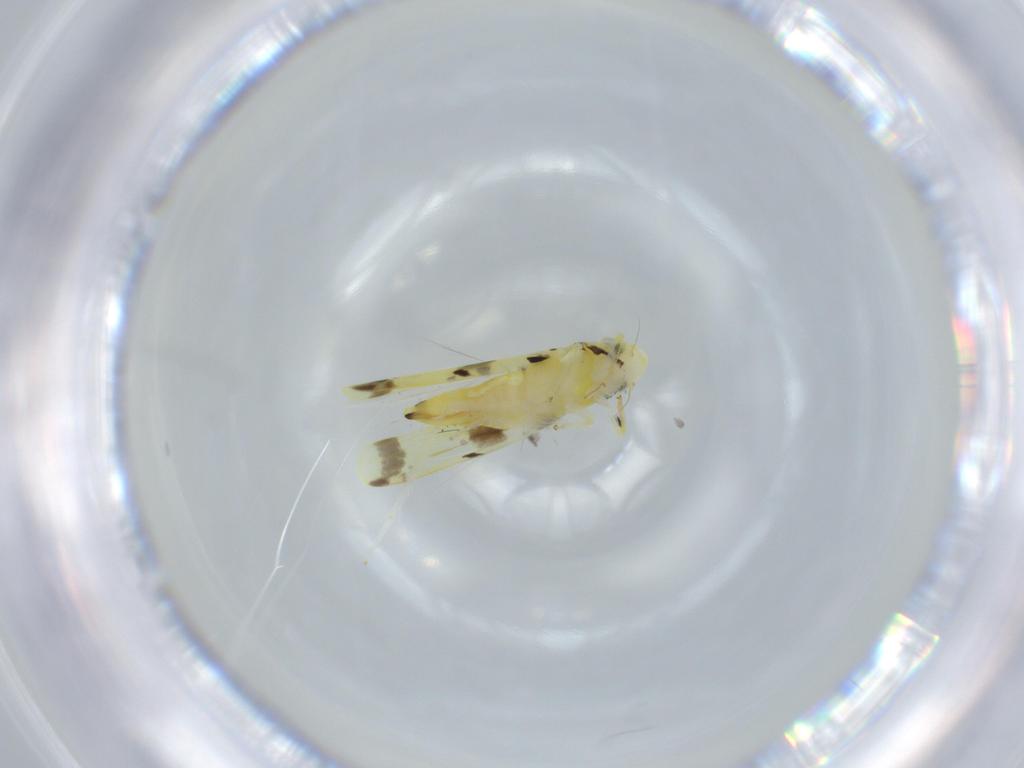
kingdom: Animalia
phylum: Arthropoda
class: Insecta
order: Hemiptera
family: Cicadellidae
